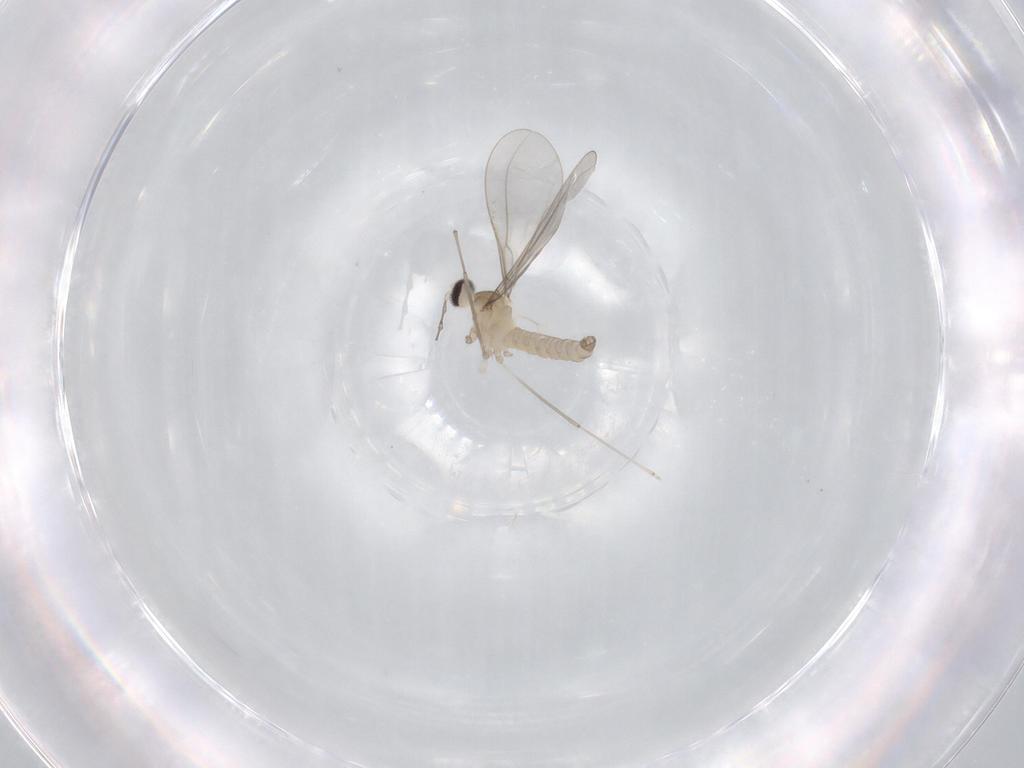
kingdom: Animalia
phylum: Arthropoda
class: Insecta
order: Diptera
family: Cecidomyiidae
